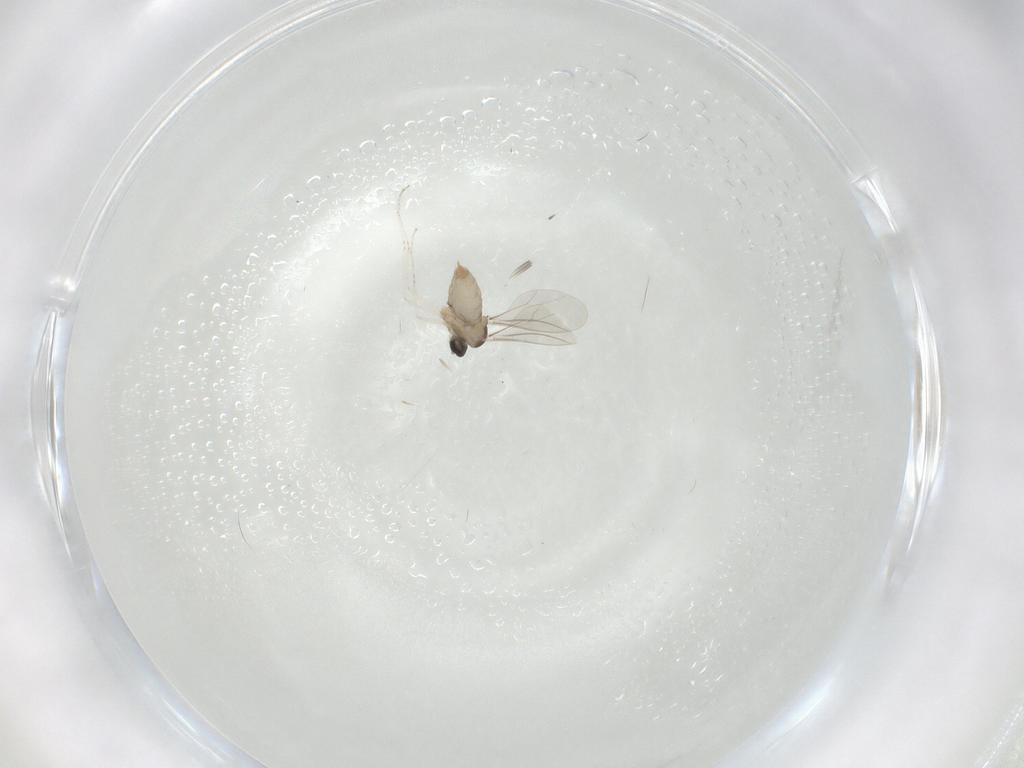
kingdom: Animalia
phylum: Arthropoda
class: Insecta
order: Diptera
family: Cecidomyiidae
